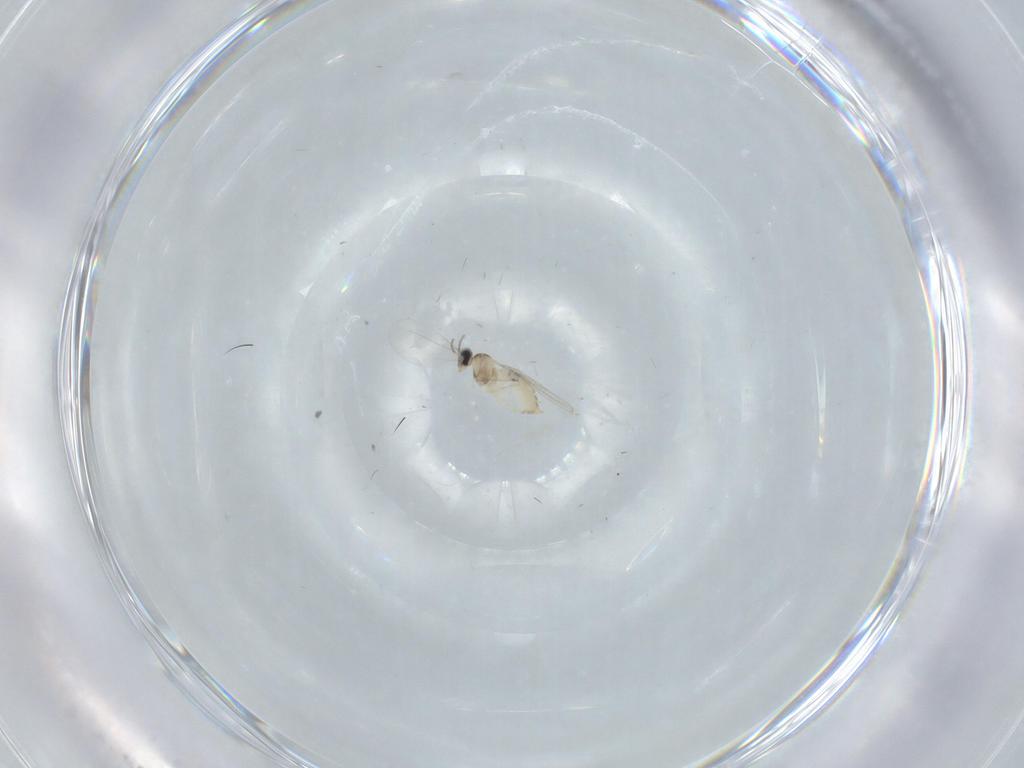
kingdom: Animalia
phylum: Arthropoda
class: Insecta
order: Diptera
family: Cecidomyiidae
